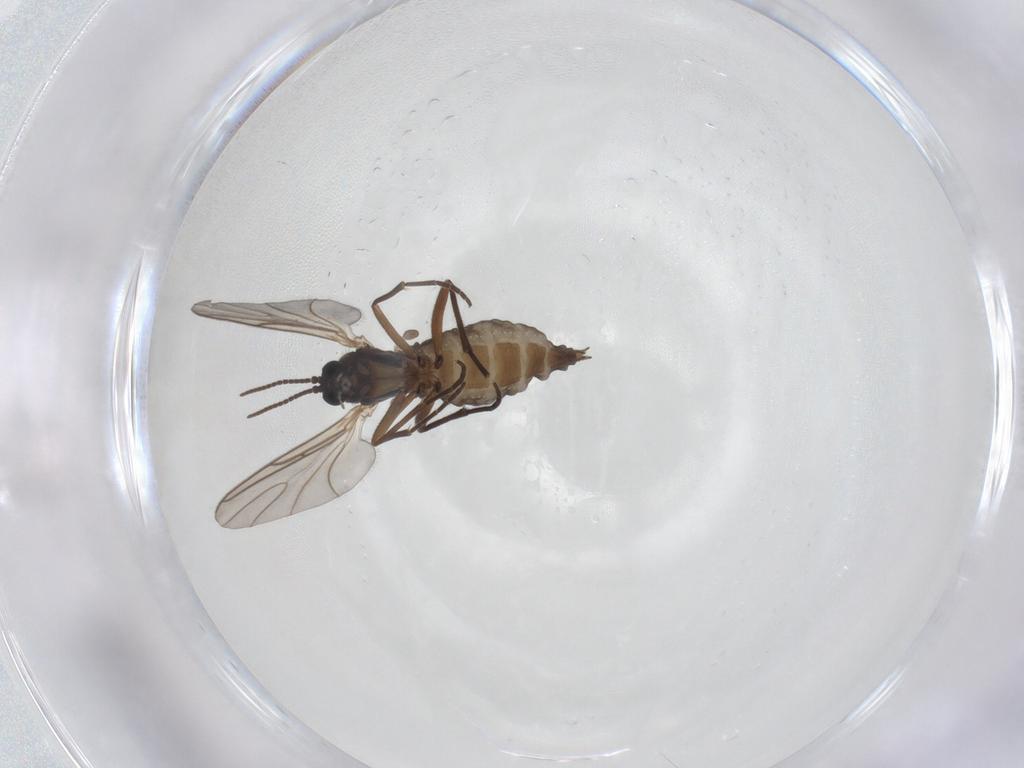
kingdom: Animalia
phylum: Arthropoda
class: Insecta
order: Diptera
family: Sciaridae
